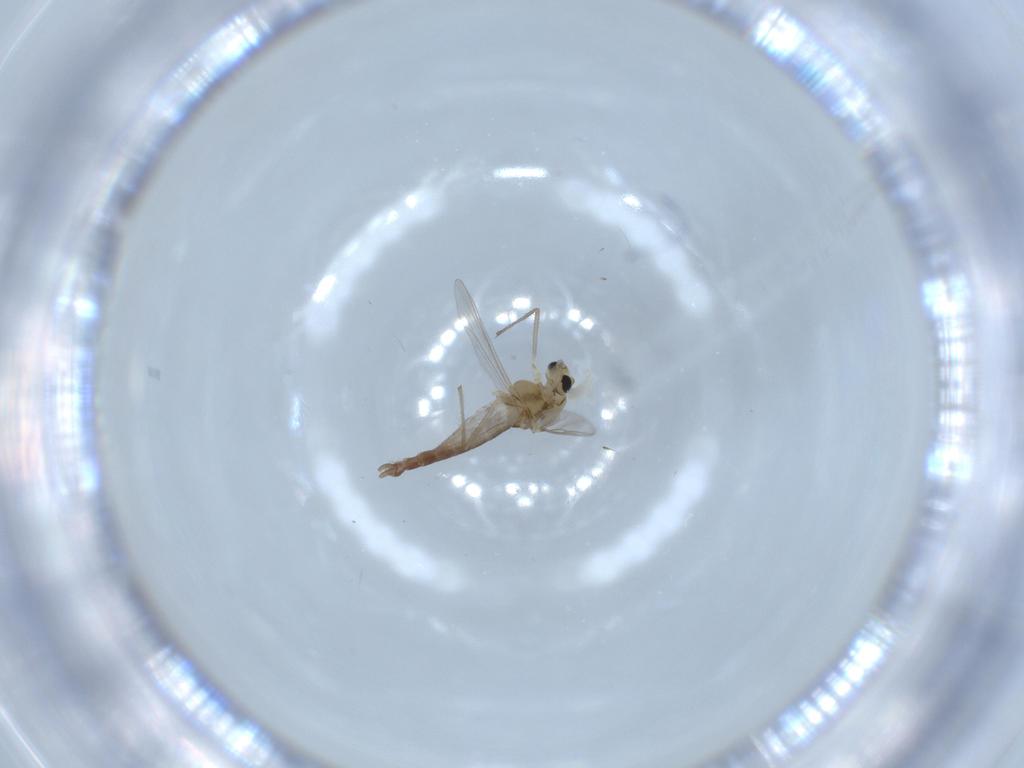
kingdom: Animalia
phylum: Arthropoda
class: Insecta
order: Diptera
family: Chironomidae
